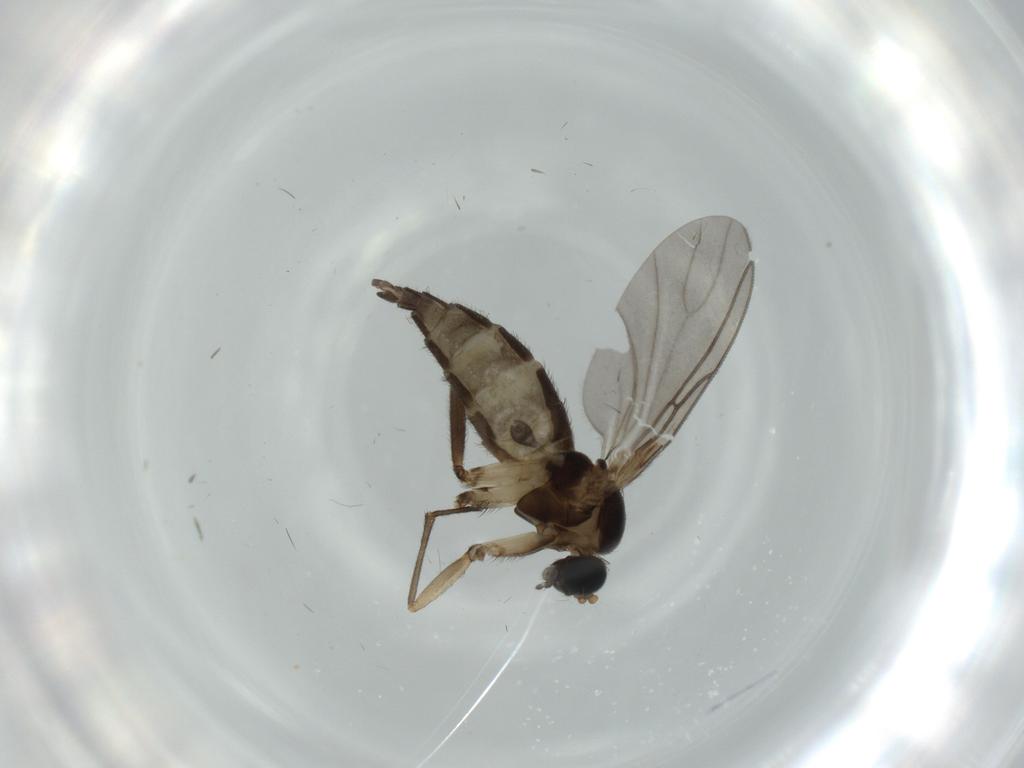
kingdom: Animalia
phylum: Arthropoda
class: Insecta
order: Diptera
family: Sciaridae
